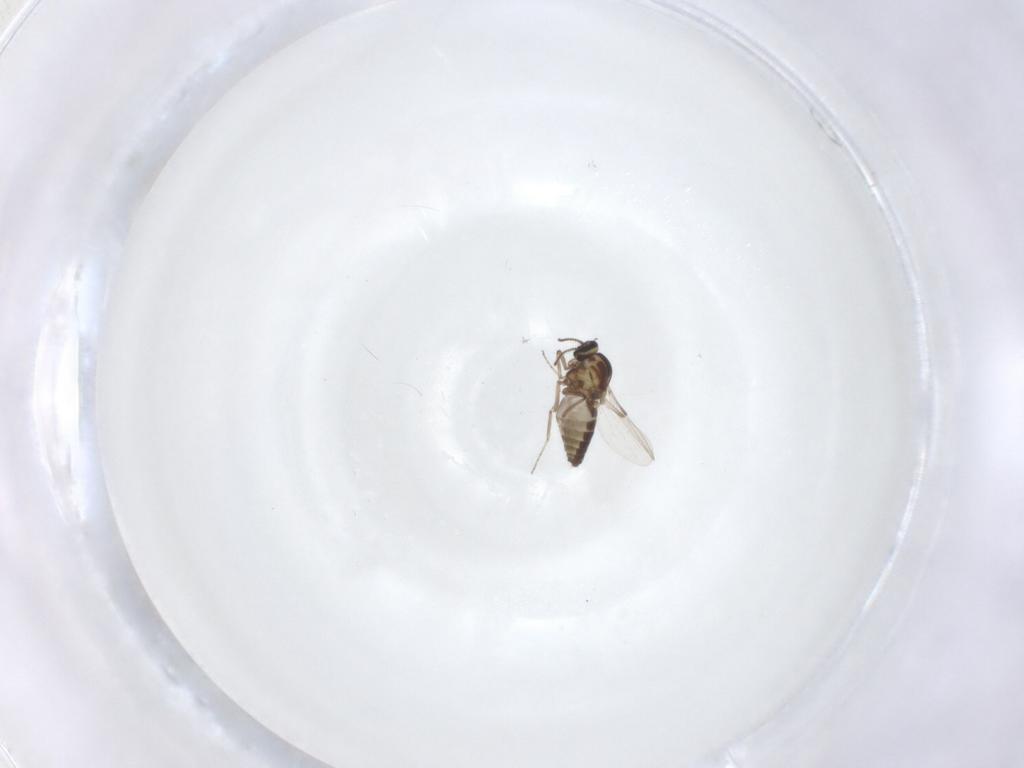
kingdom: Animalia
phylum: Arthropoda
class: Insecta
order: Diptera
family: Ceratopogonidae
